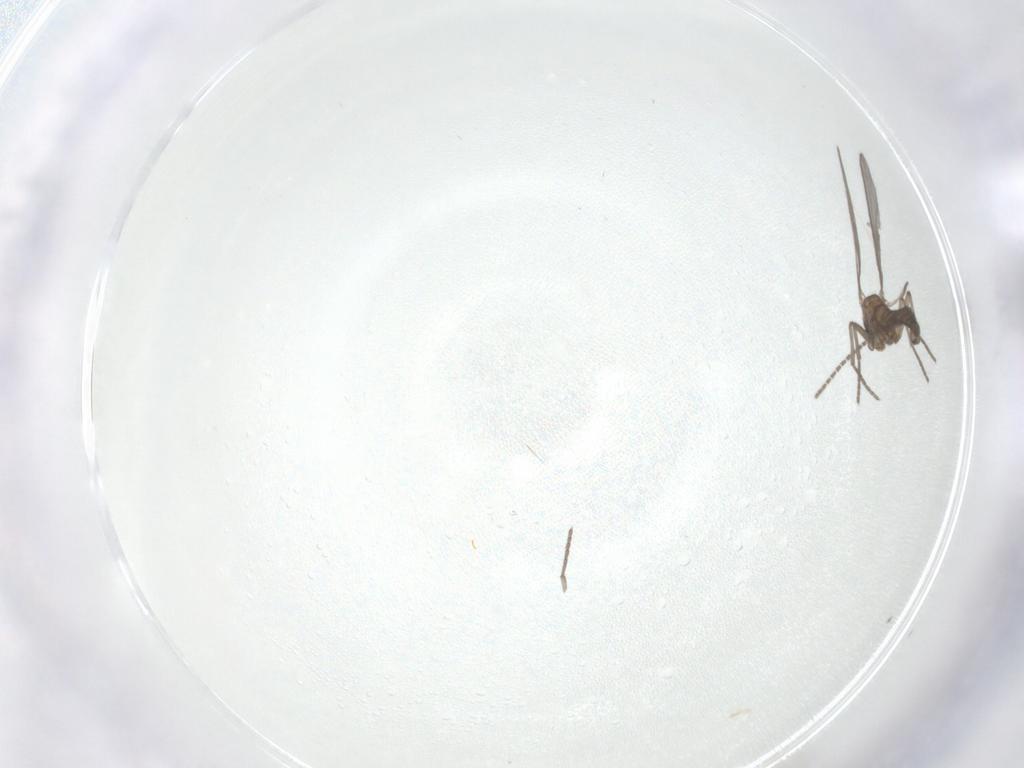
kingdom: Animalia
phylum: Arthropoda
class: Insecta
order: Diptera
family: Sciaridae
